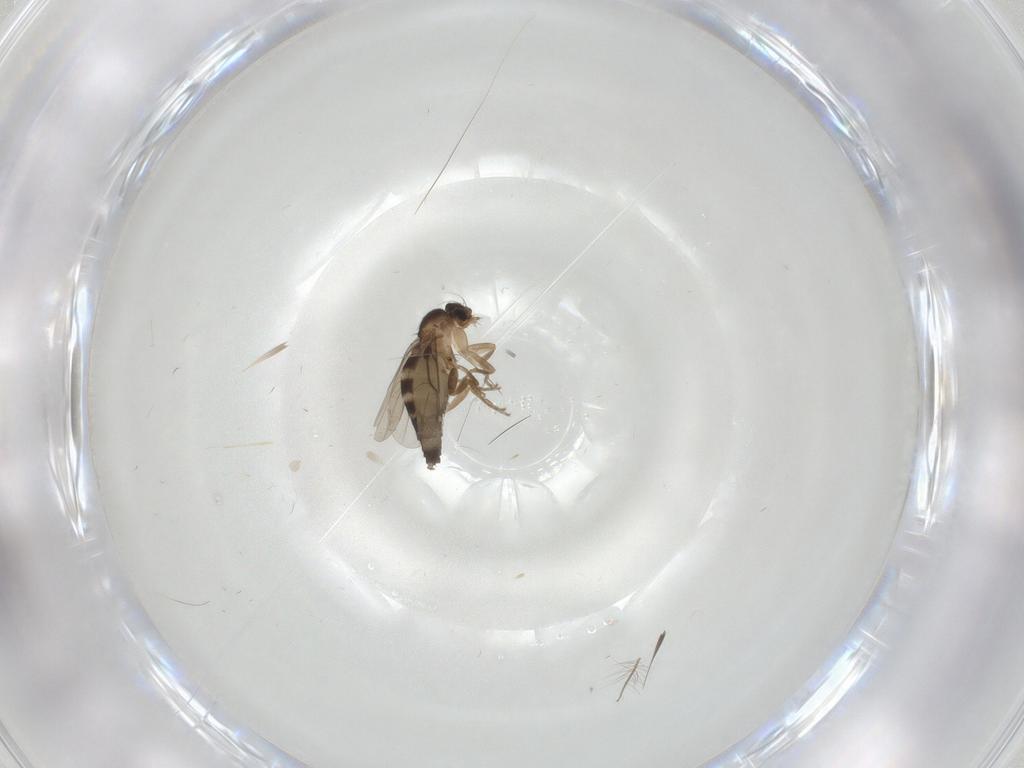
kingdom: Animalia
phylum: Arthropoda
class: Insecta
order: Diptera
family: Phoridae
